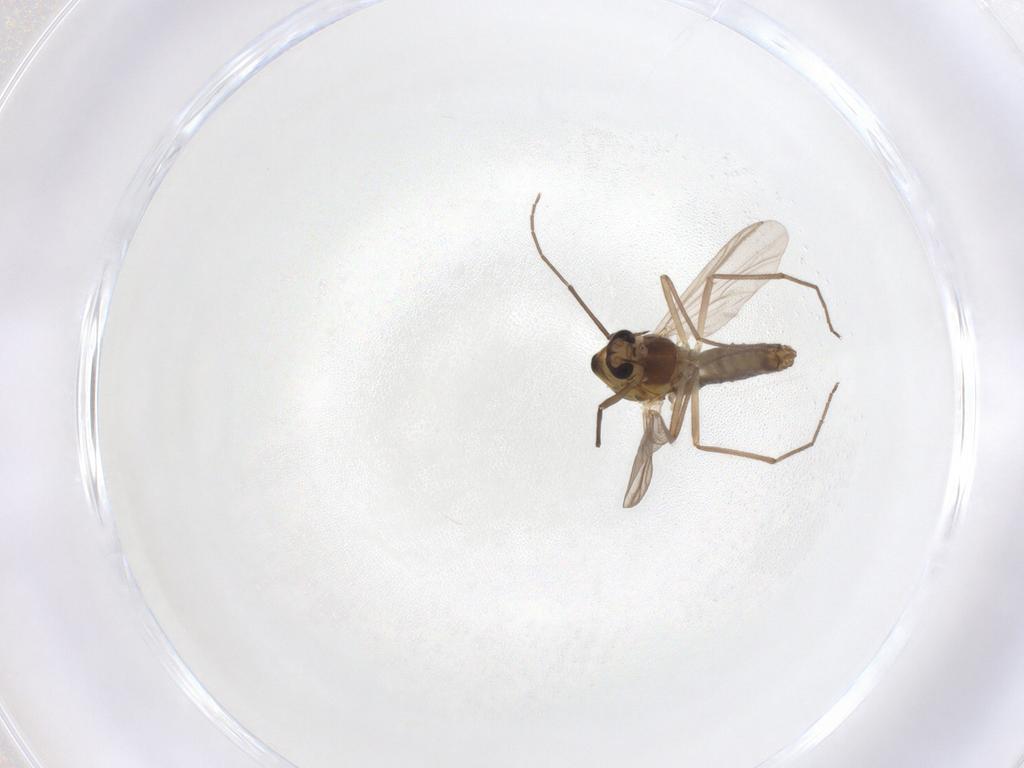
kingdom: Animalia
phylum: Arthropoda
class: Insecta
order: Diptera
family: Chironomidae
